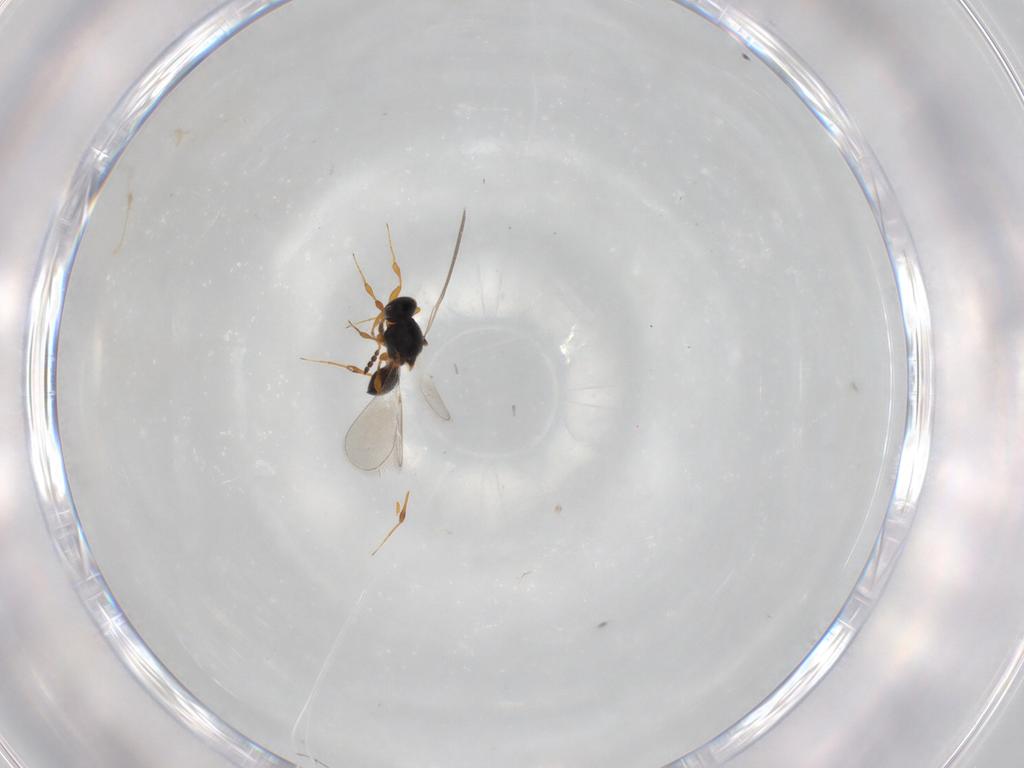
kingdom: Animalia
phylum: Arthropoda
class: Insecta
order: Hymenoptera
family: Platygastridae
